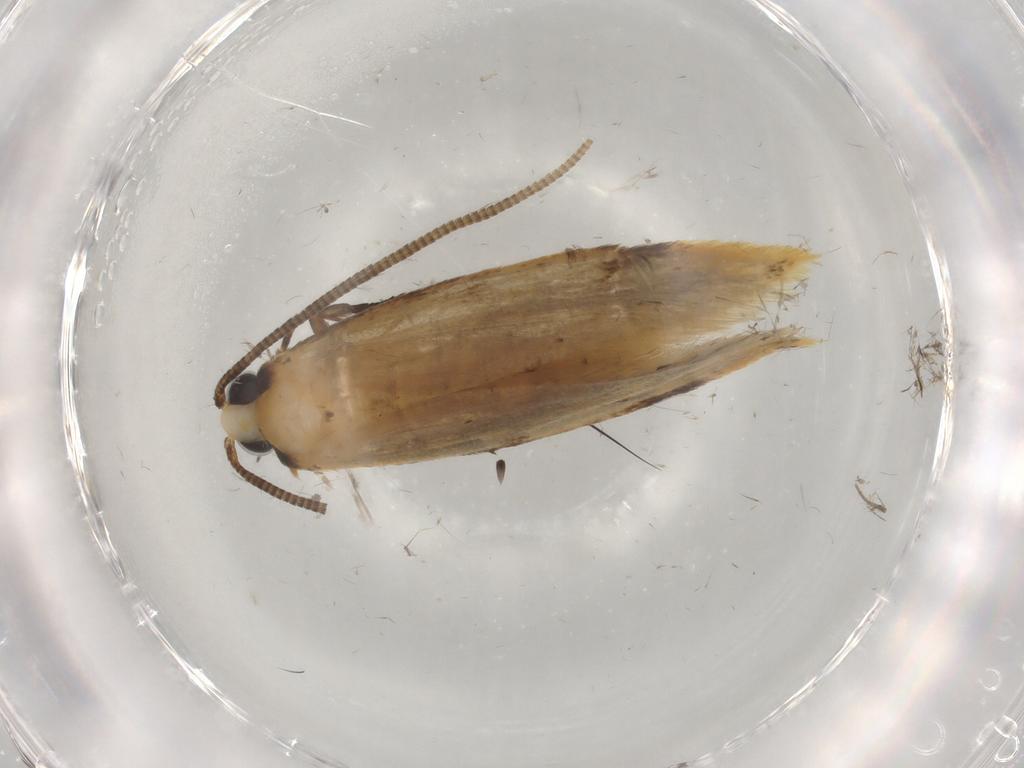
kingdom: Animalia
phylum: Arthropoda
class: Insecta
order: Lepidoptera
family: Tineidae
